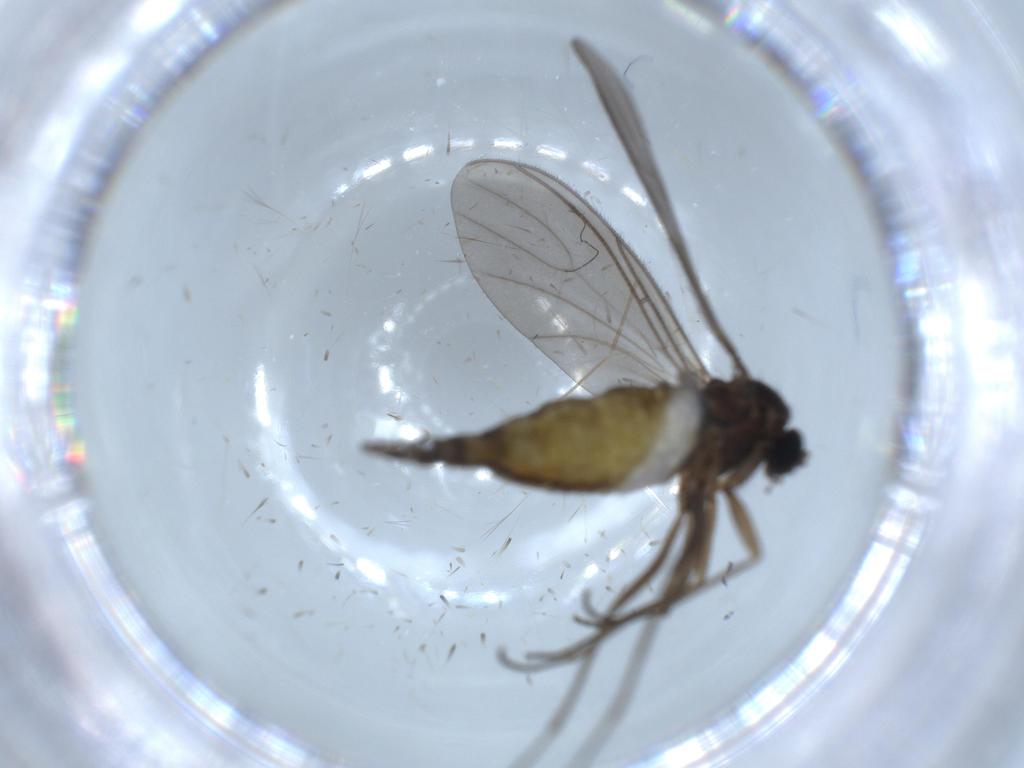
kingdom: Animalia
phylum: Arthropoda
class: Insecta
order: Diptera
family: Sciaridae
